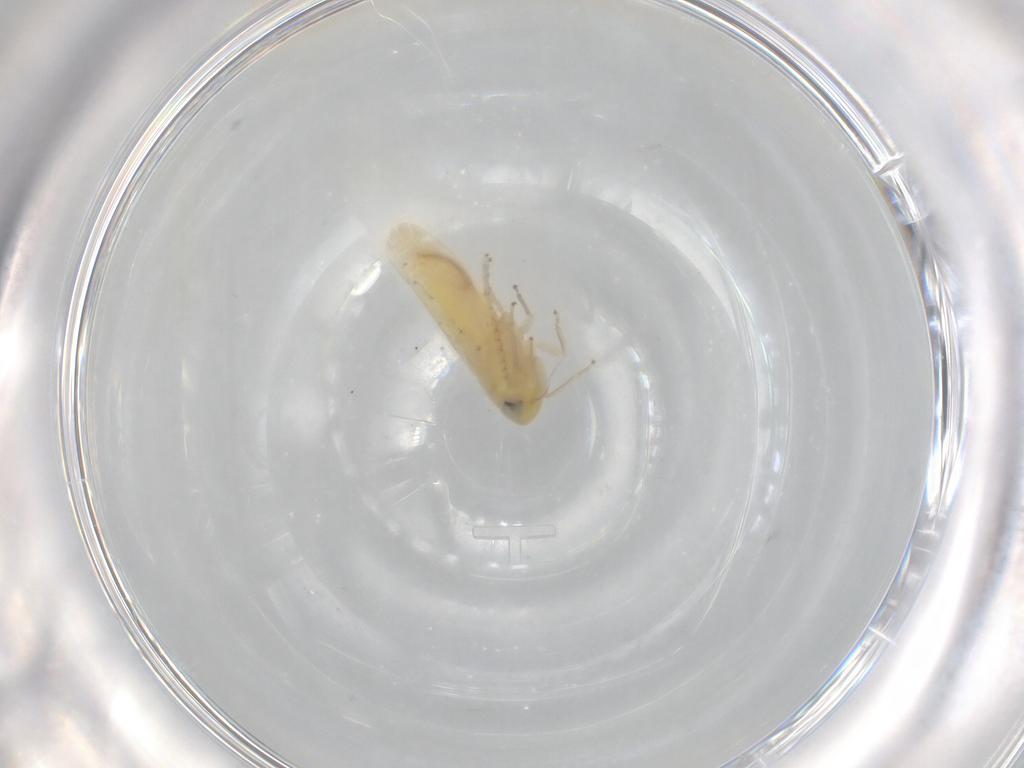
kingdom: Animalia
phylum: Arthropoda
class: Insecta
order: Hemiptera
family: Cicadellidae
